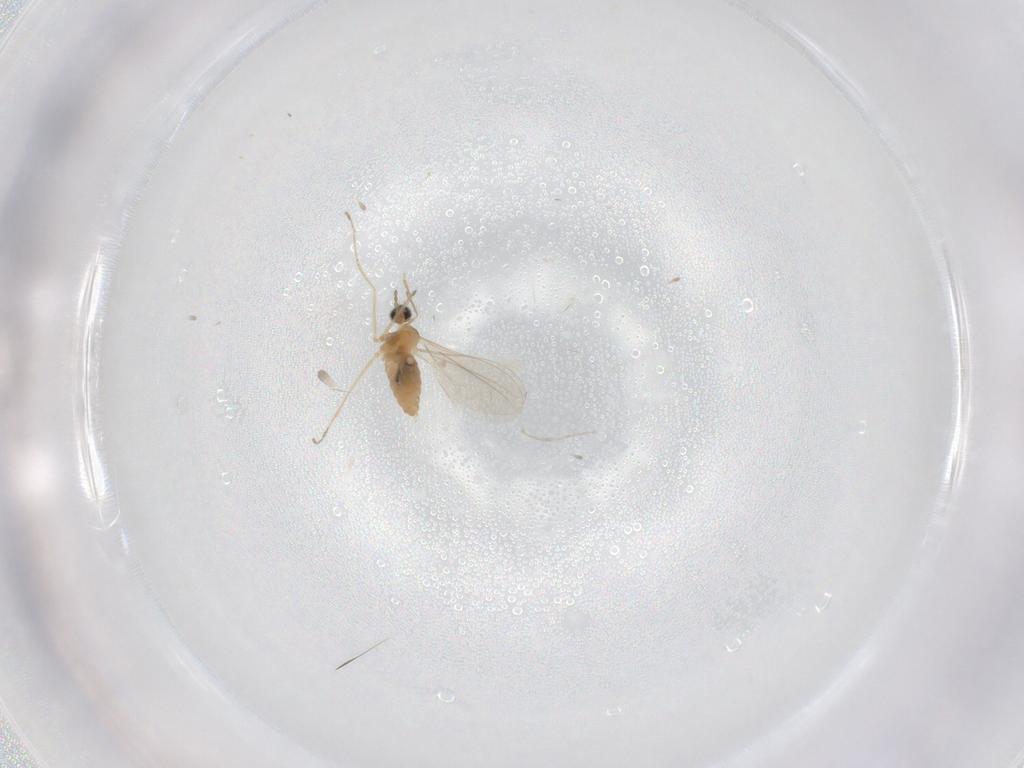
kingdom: Animalia
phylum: Arthropoda
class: Insecta
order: Diptera
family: Cecidomyiidae
